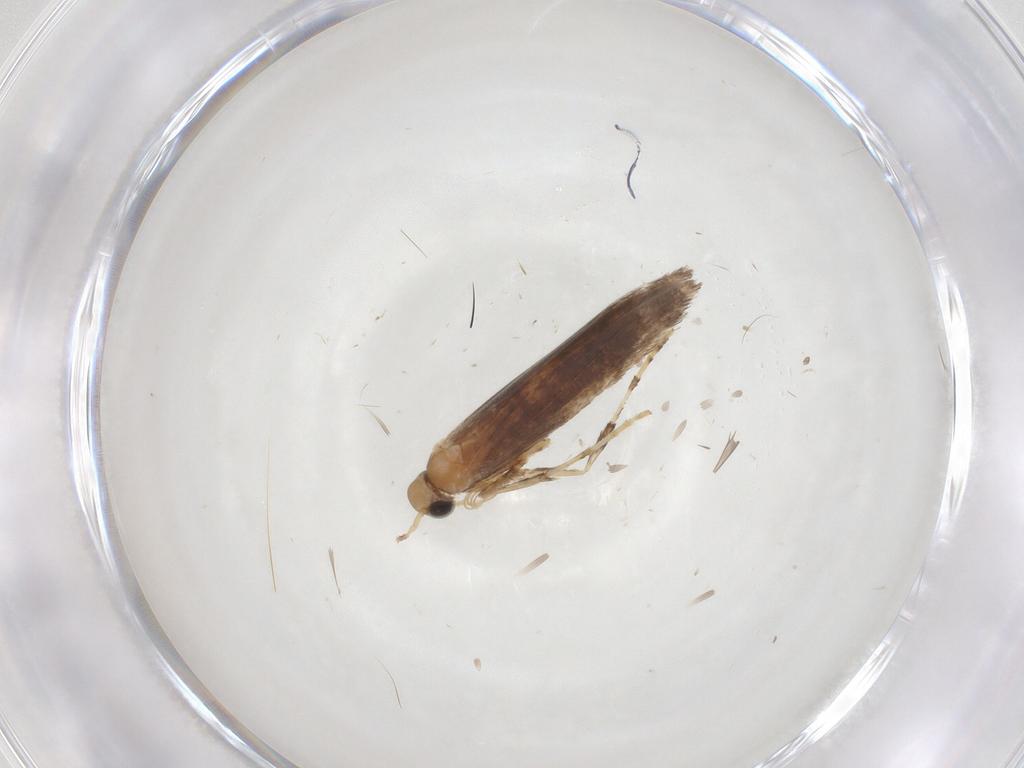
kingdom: Animalia
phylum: Arthropoda
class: Insecta
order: Lepidoptera
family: Gracillariidae
